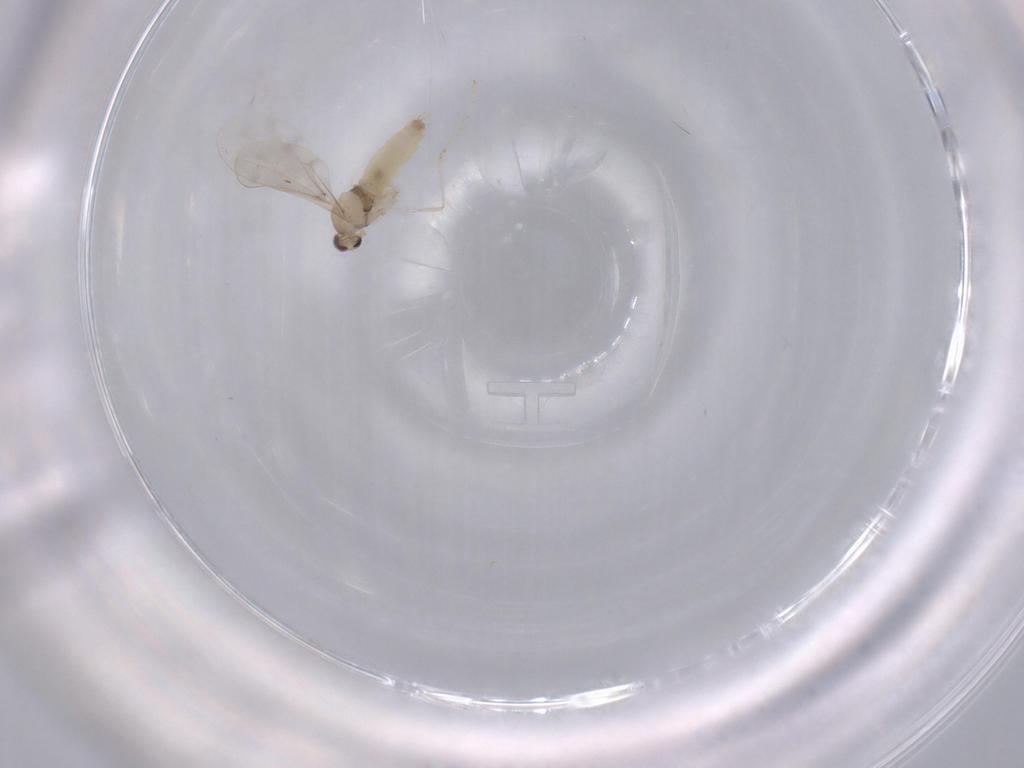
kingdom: Animalia
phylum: Arthropoda
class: Insecta
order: Diptera
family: Cecidomyiidae
